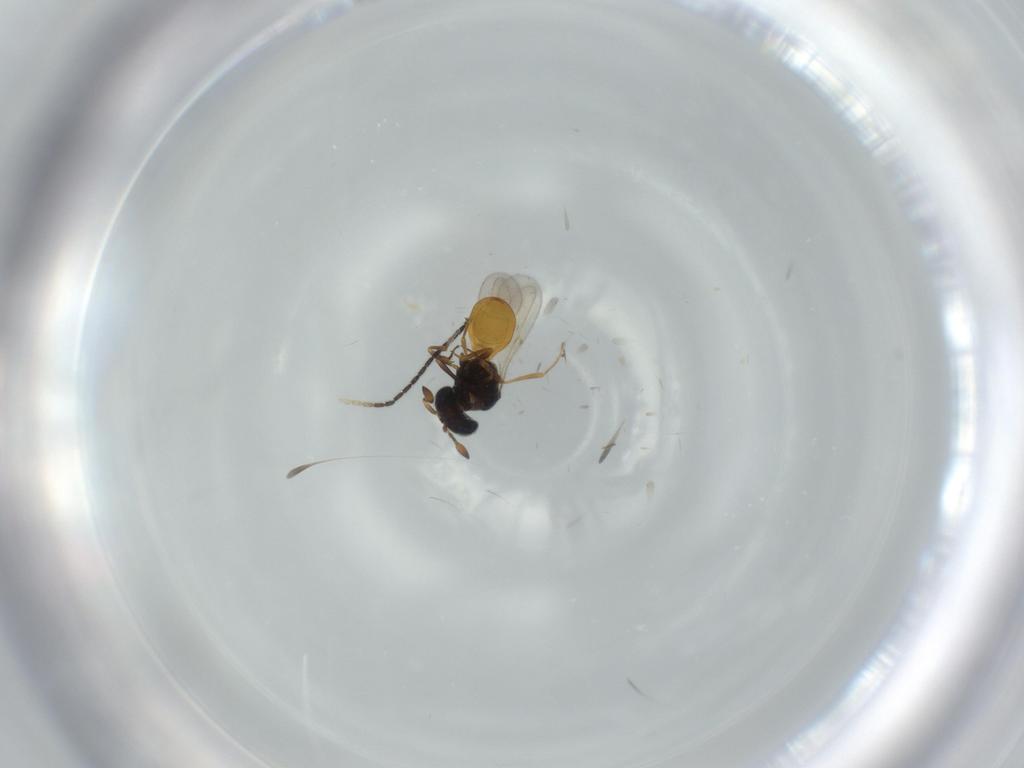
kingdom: Animalia
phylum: Arthropoda
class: Insecta
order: Hymenoptera
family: Scelionidae
